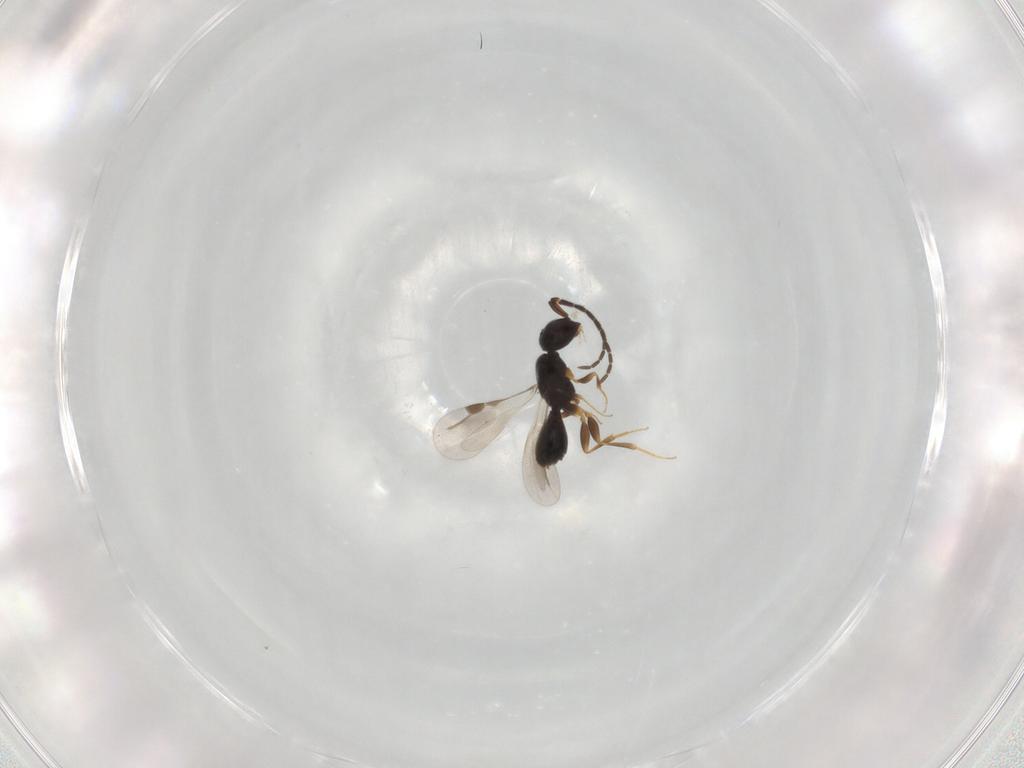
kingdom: Animalia
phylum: Arthropoda
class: Insecta
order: Hymenoptera
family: Megaspilidae
